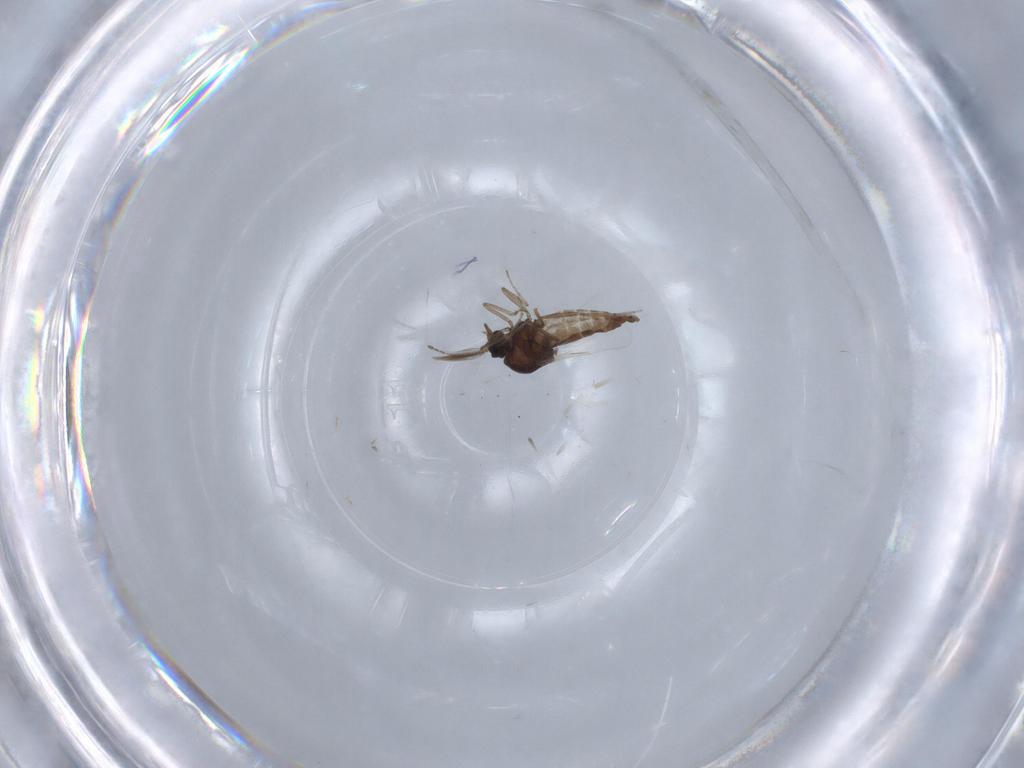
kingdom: Animalia
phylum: Arthropoda
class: Insecta
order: Diptera
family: Ceratopogonidae
